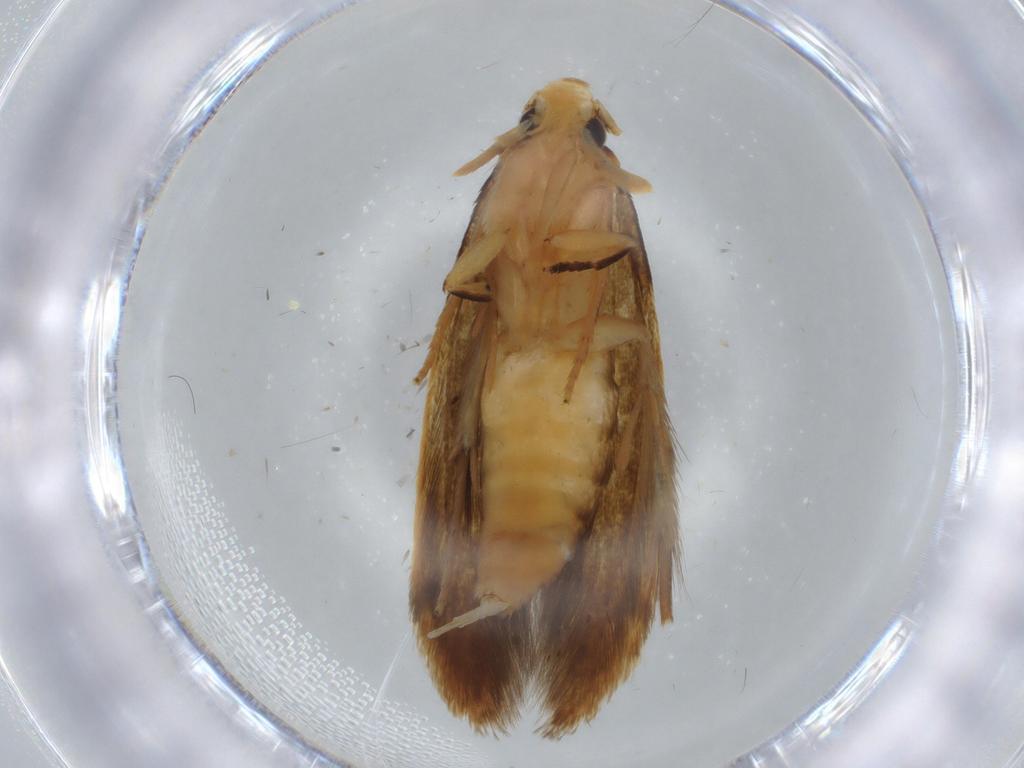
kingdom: Animalia
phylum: Arthropoda
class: Insecta
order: Lepidoptera
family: Tineidae
